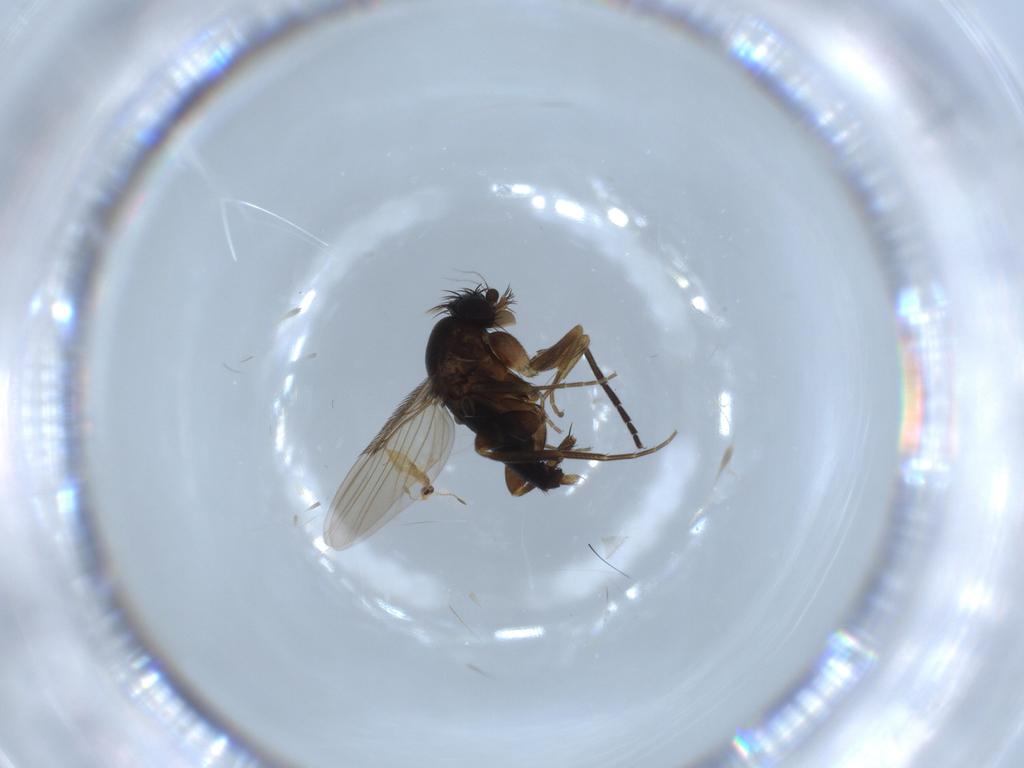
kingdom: Animalia
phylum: Arthropoda
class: Insecta
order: Diptera
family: Phoridae
